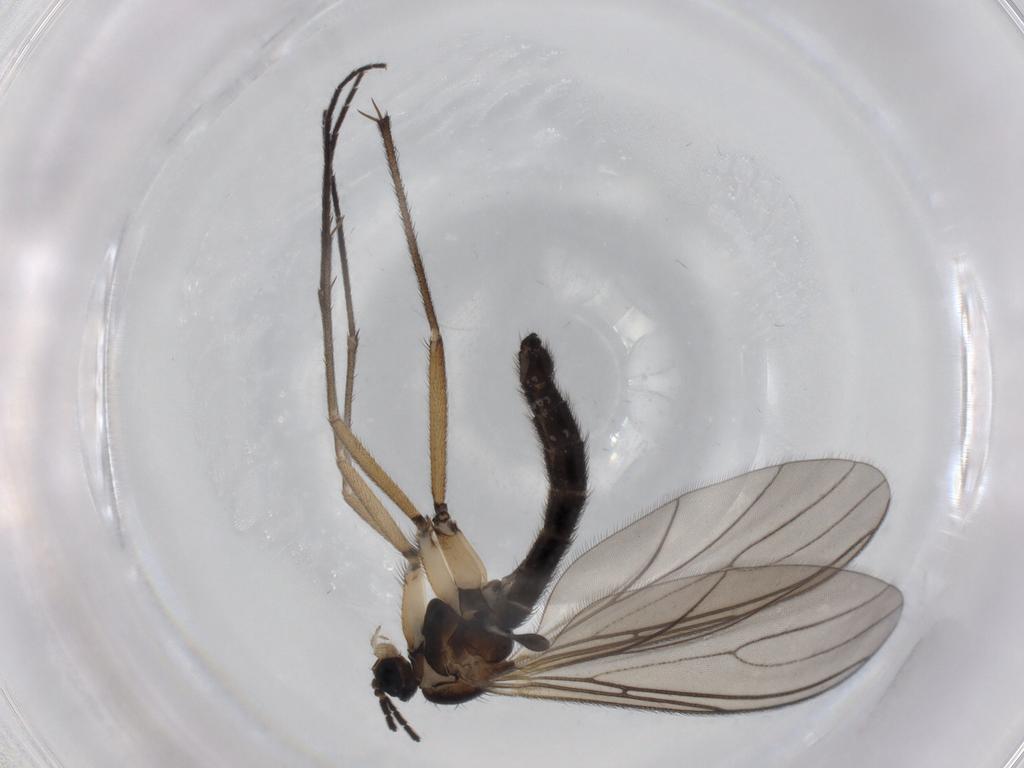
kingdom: Animalia
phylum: Arthropoda
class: Insecta
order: Diptera
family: Sciaridae
